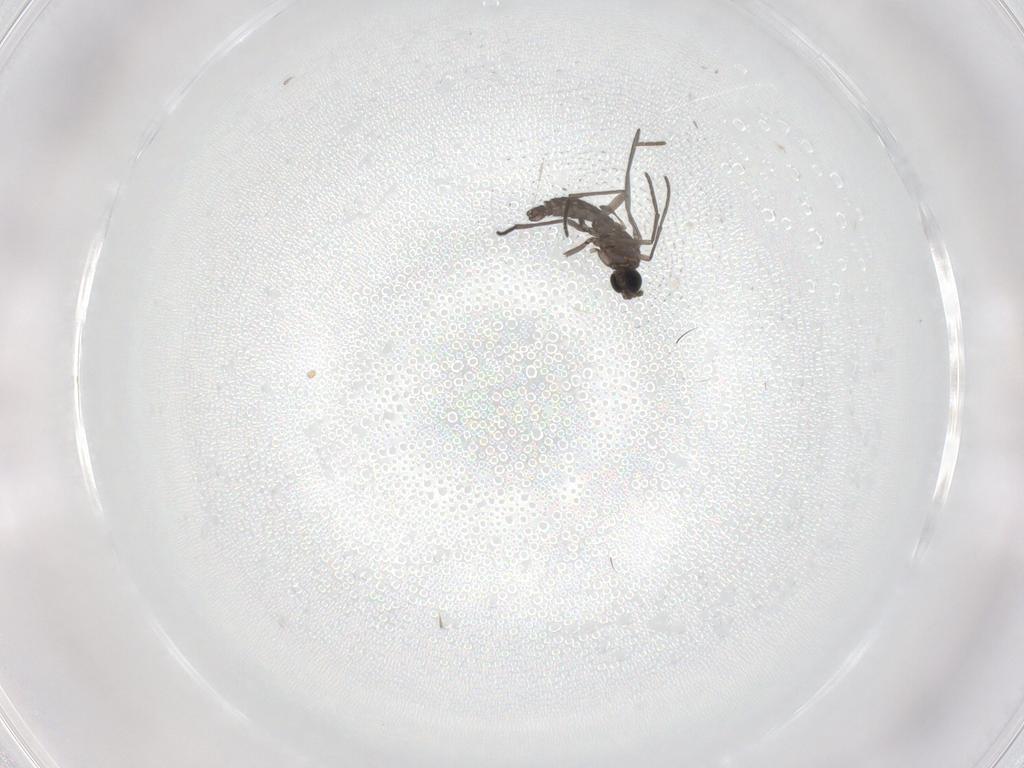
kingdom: Animalia
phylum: Arthropoda
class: Insecta
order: Diptera
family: Sciaridae
